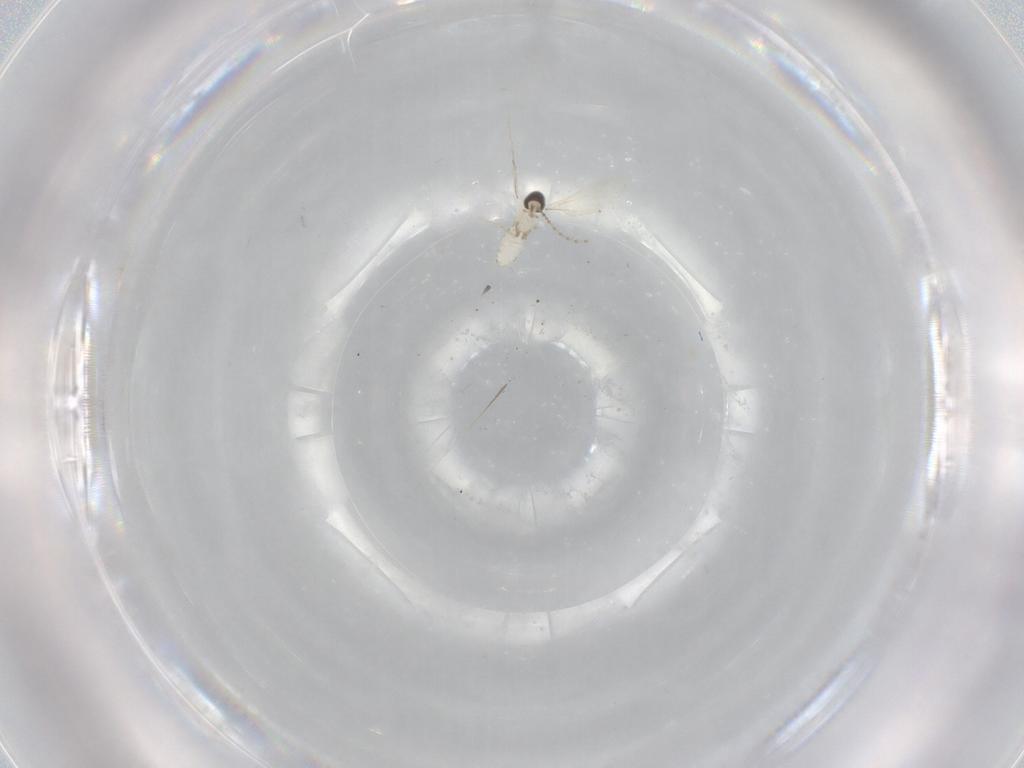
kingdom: Animalia
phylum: Arthropoda
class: Insecta
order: Diptera
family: Cecidomyiidae
